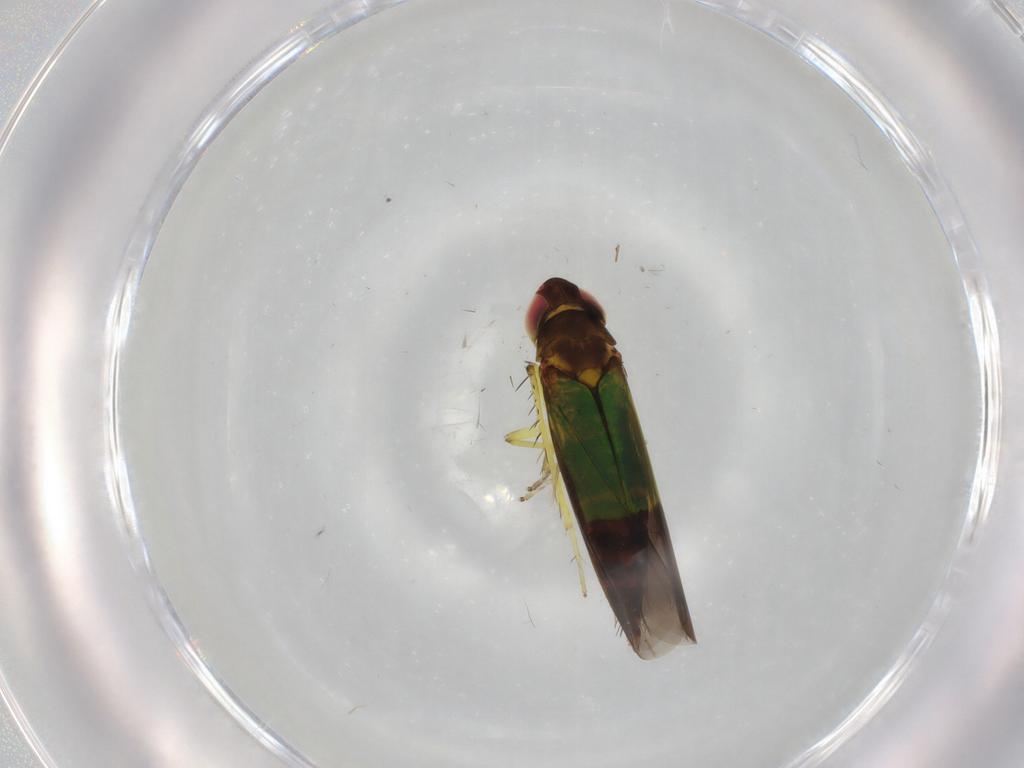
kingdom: Animalia
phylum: Arthropoda
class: Insecta
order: Hemiptera
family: Cicadellidae
